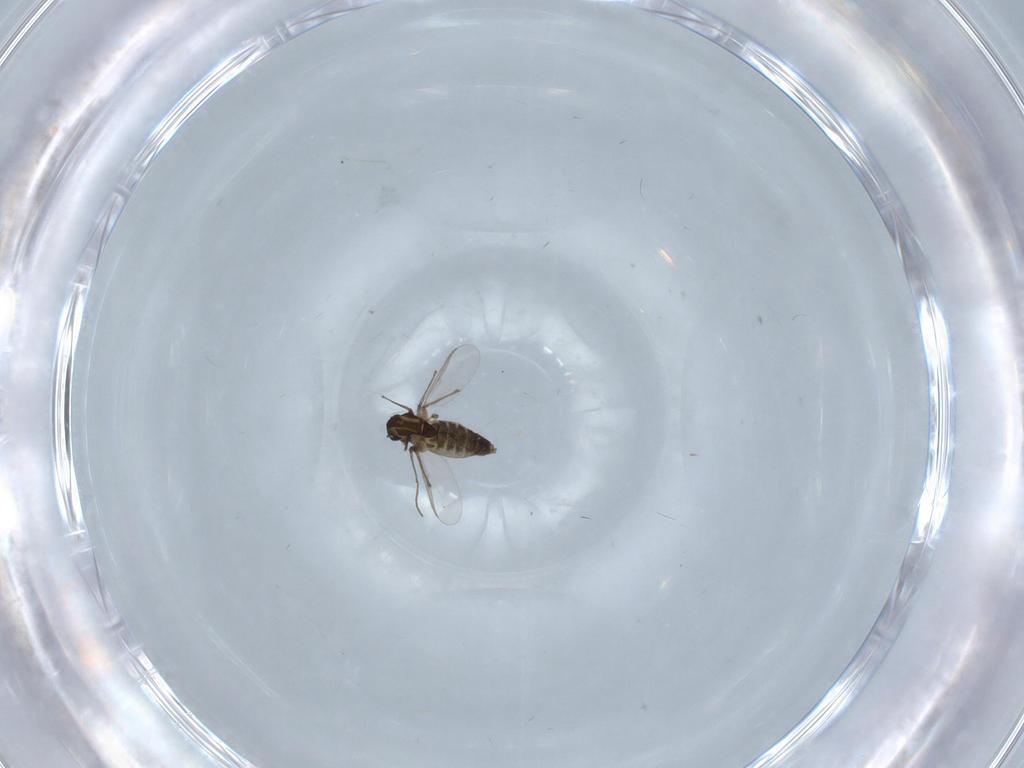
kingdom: Animalia
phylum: Arthropoda
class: Insecta
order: Diptera
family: Chironomidae
